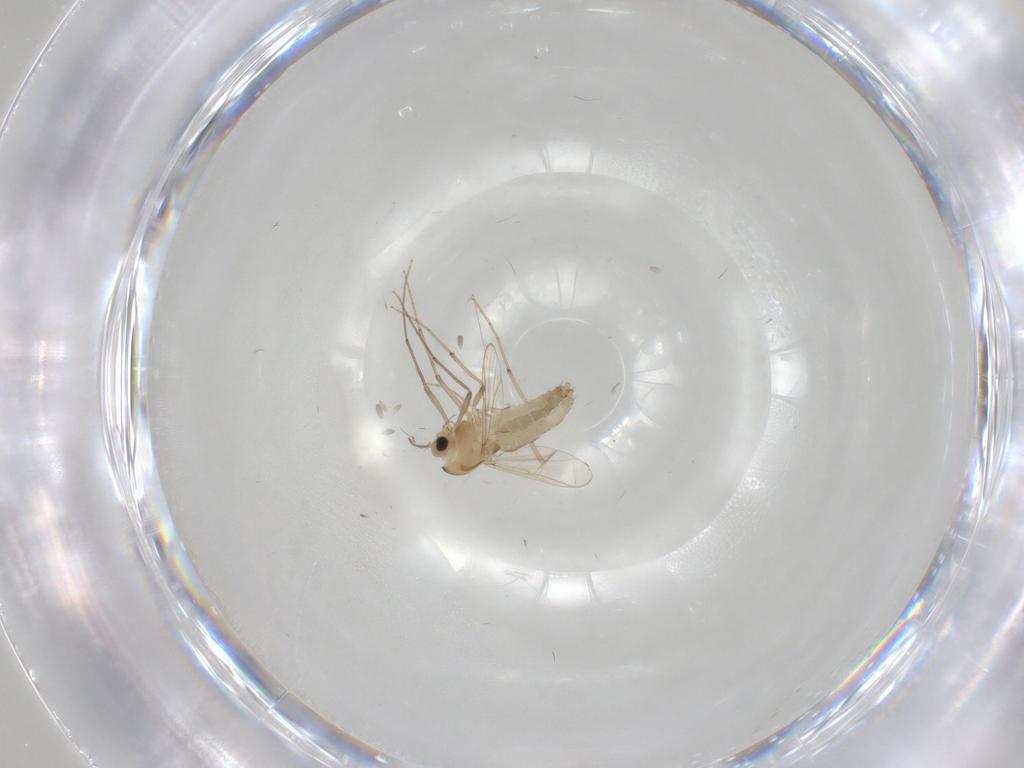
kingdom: Animalia
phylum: Arthropoda
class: Insecta
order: Diptera
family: Chironomidae
